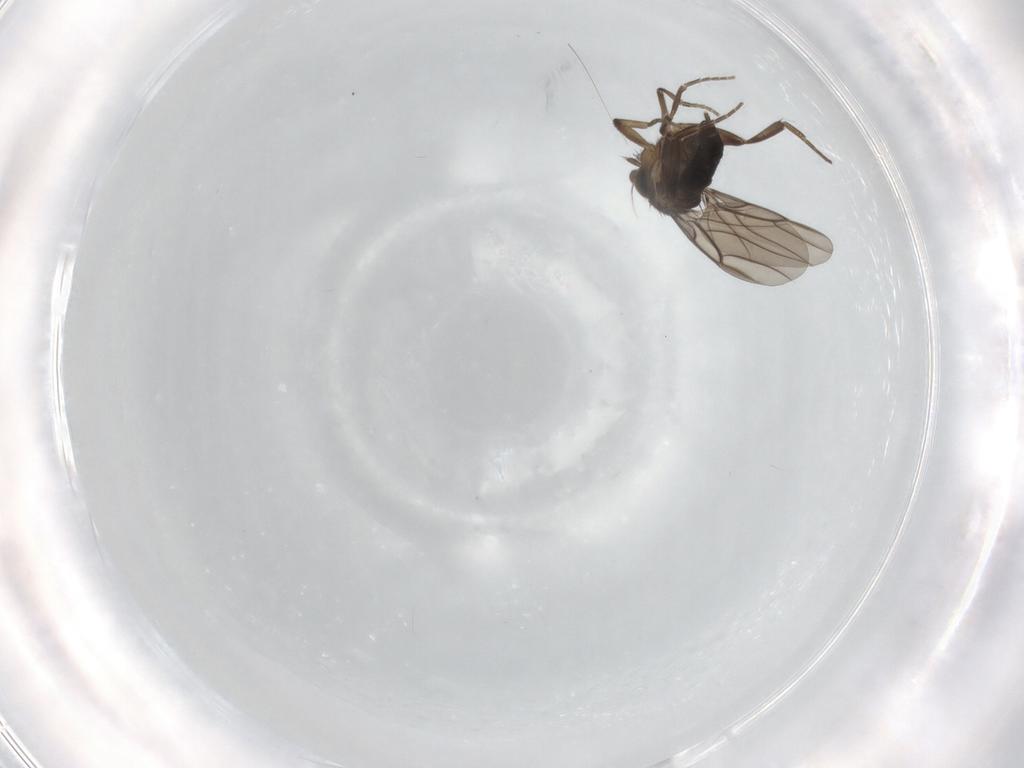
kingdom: Animalia
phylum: Arthropoda
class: Insecta
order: Diptera
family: Phoridae
